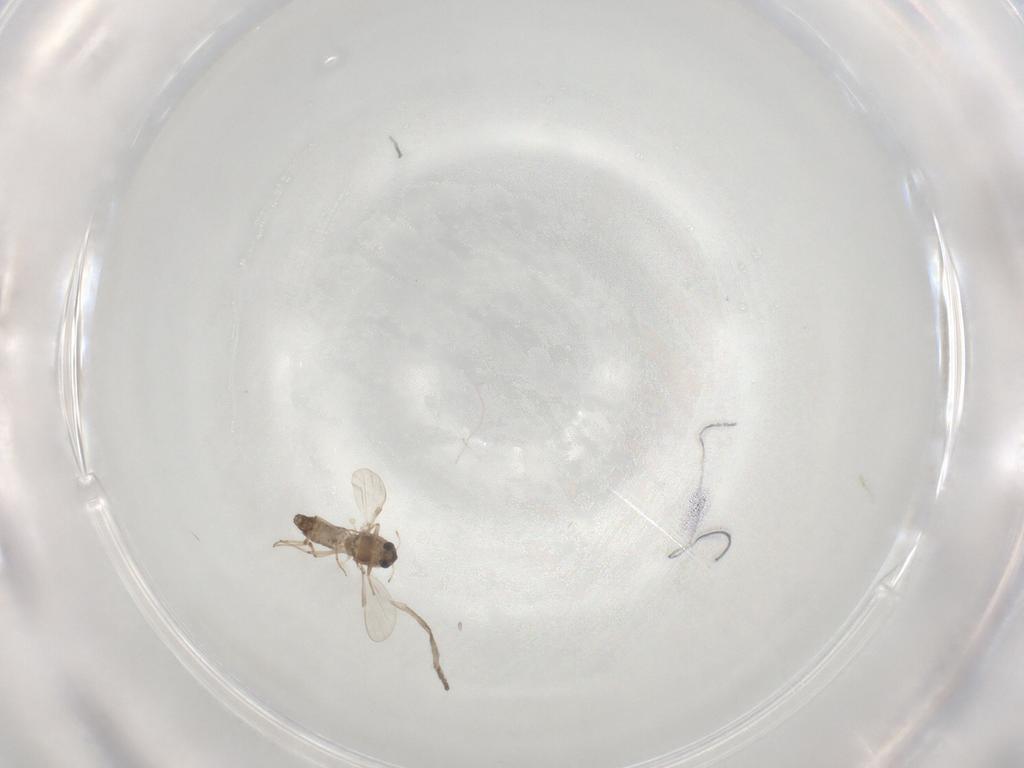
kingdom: Animalia
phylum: Arthropoda
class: Insecta
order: Diptera
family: Chironomidae
